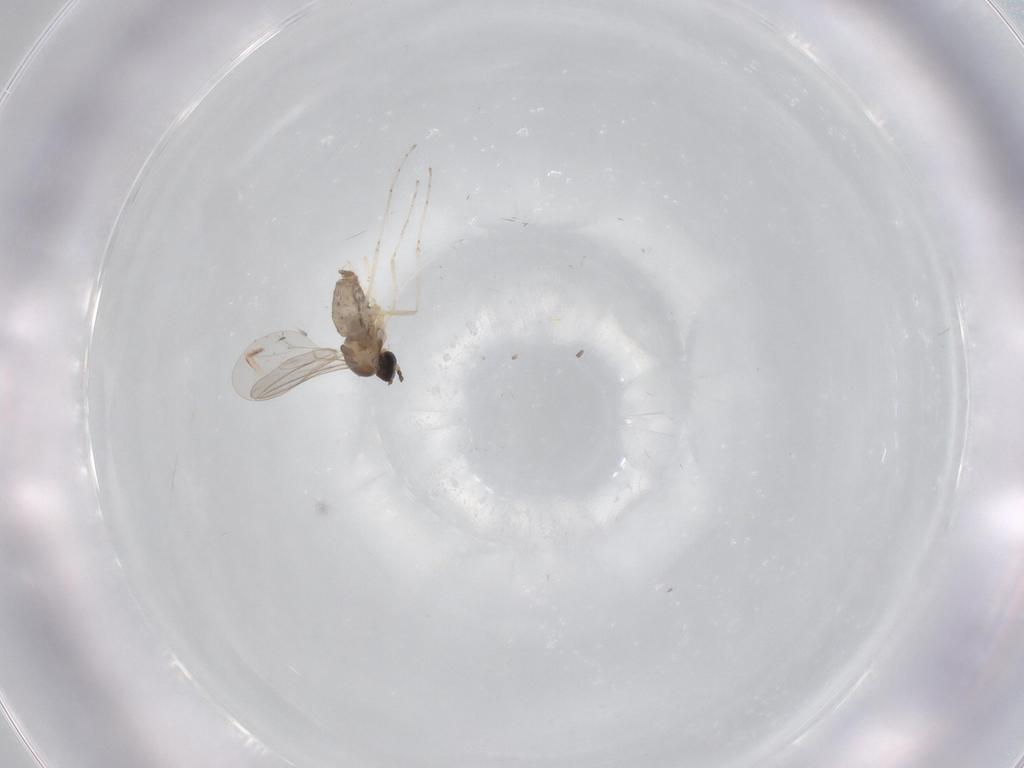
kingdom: Animalia
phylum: Arthropoda
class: Insecta
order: Diptera
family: Cecidomyiidae
